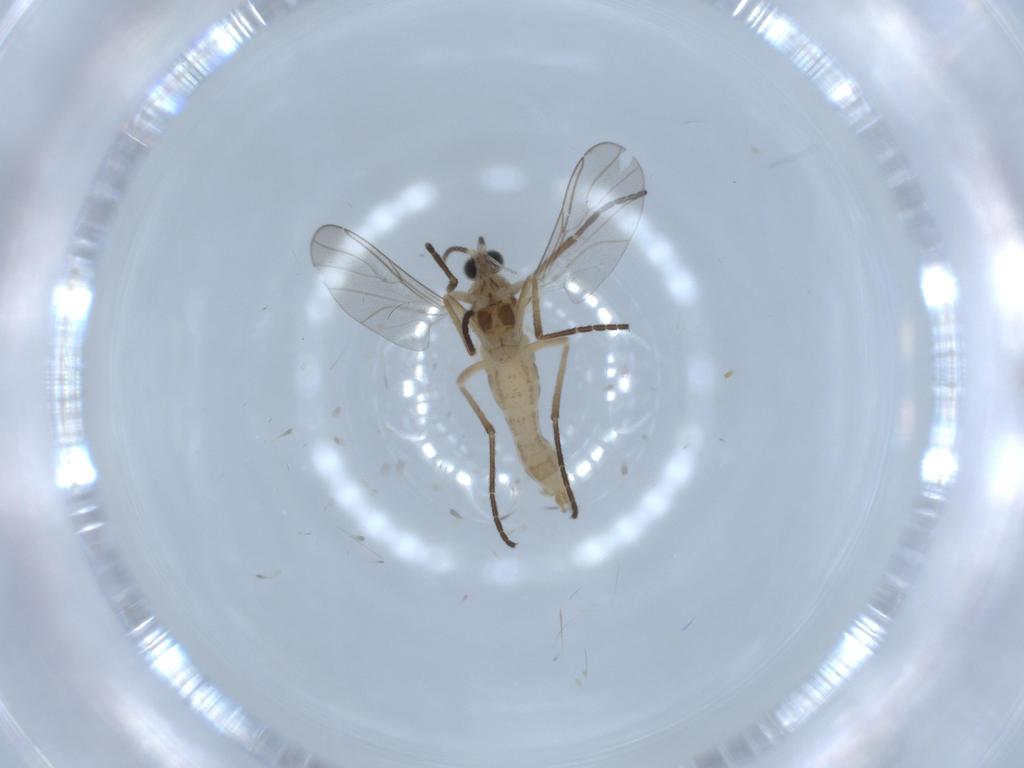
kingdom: Animalia
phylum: Arthropoda
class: Insecta
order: Diptera
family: Cecidomyiidae
